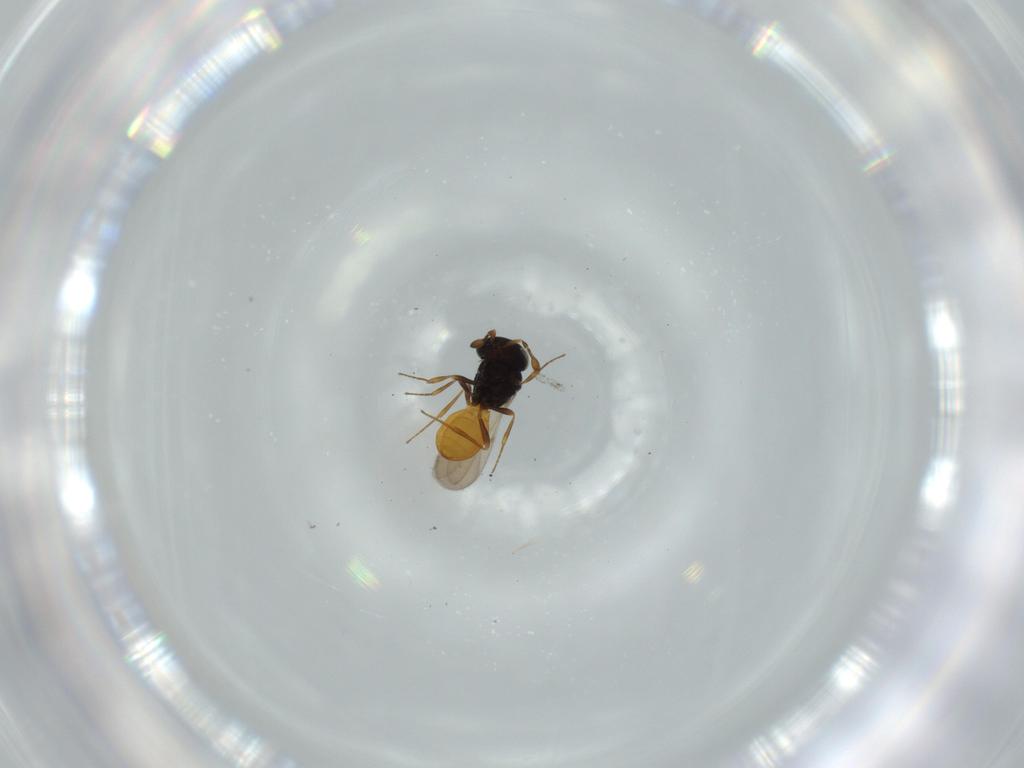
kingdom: Animalia
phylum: Arthropoda
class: Insecta
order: Hymenoptera
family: Scelionidae
